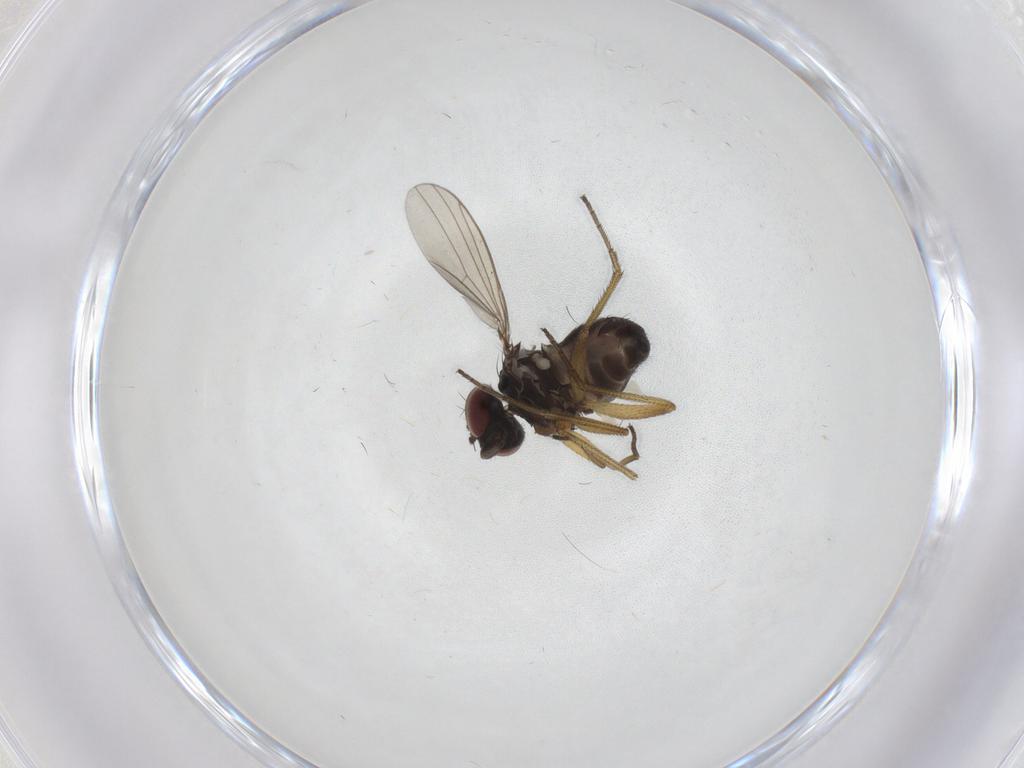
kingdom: Animalia
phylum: Arthropoda
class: Insecta
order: Diptera
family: Dolichopodidae
